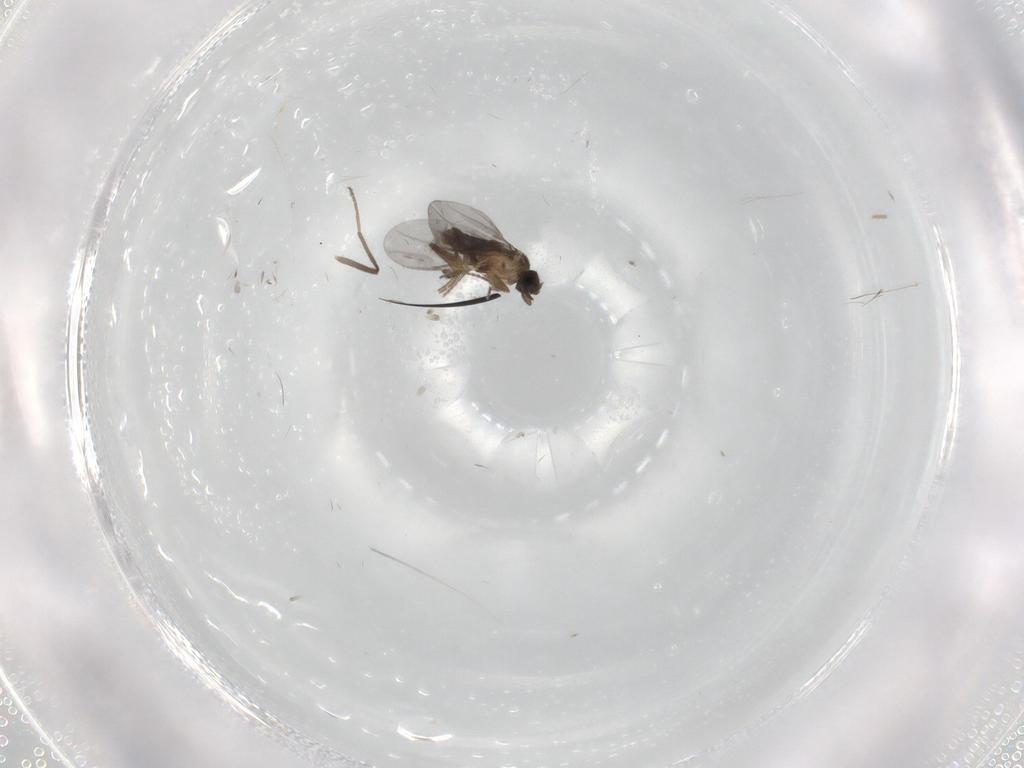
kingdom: Animalia
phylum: Arthropoda
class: Insecta
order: Diptera
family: Chironomidae
